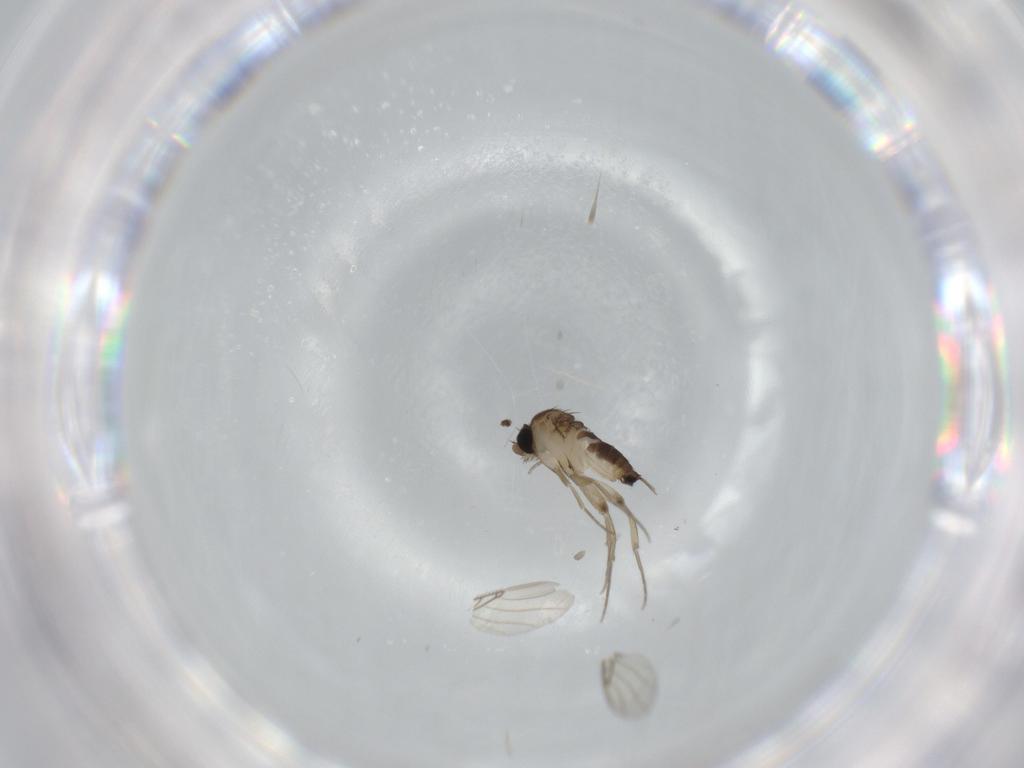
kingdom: Animalia
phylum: Arthropoda
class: Insecta
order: Diptera
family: Phoridae
